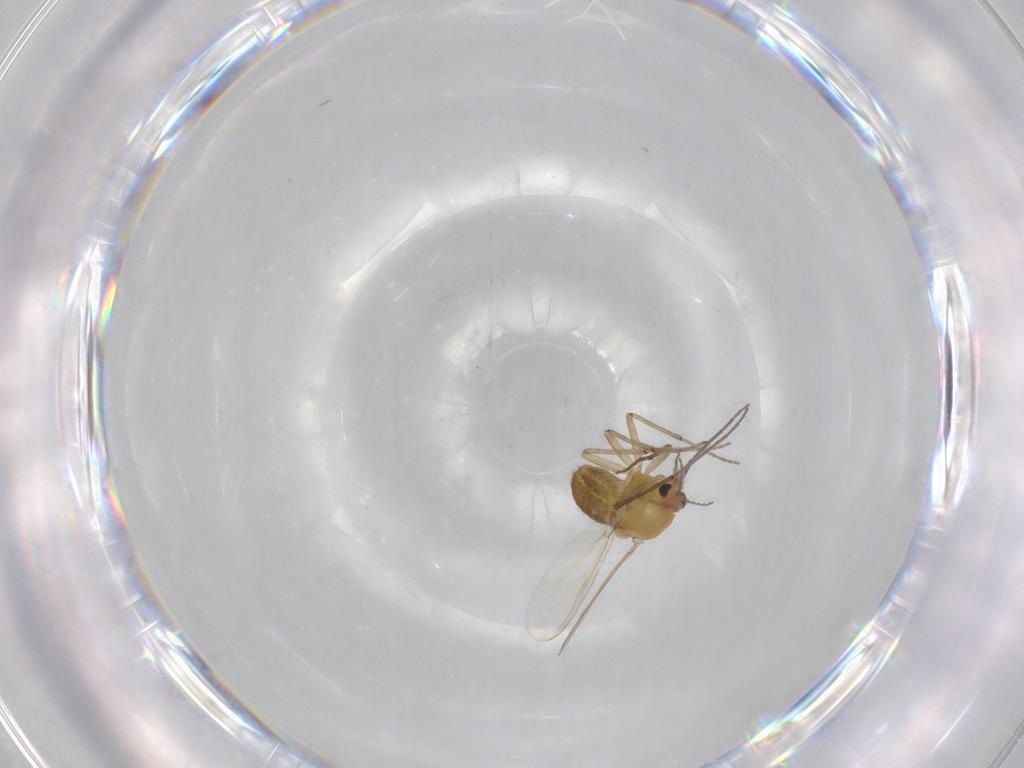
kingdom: Animalia
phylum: Arthropoda
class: Insecta
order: Diptera
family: Chironomidae
